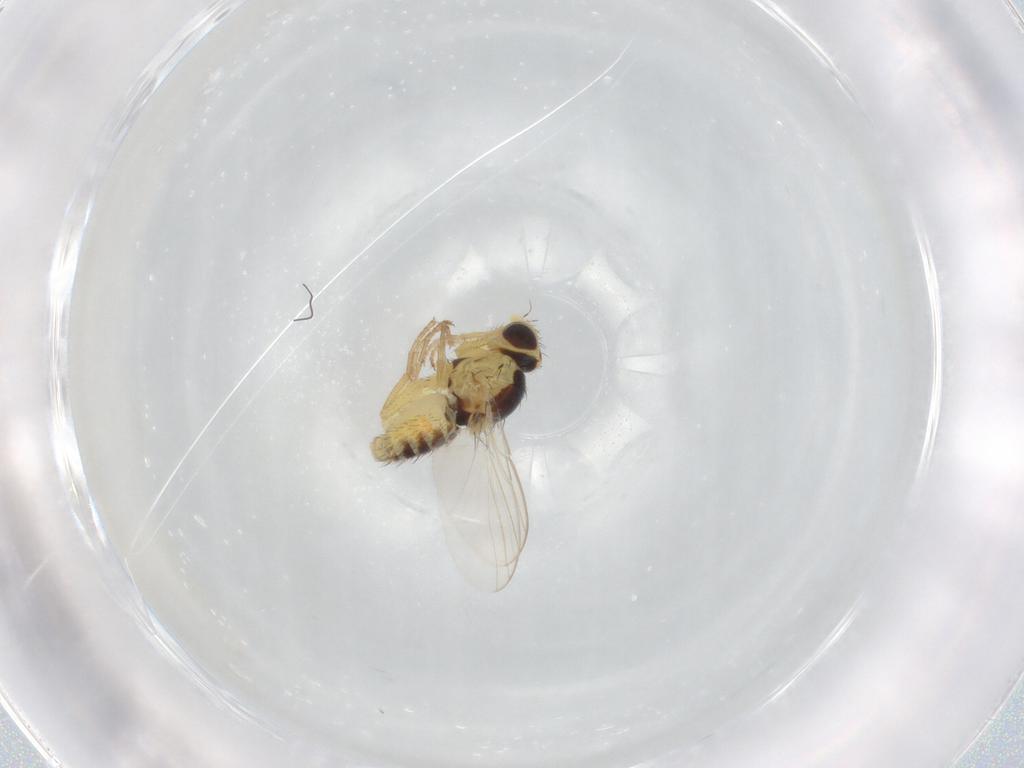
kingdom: Animalia
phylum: Arthropoda
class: Insecta
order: Diptera
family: Agromyzidae
